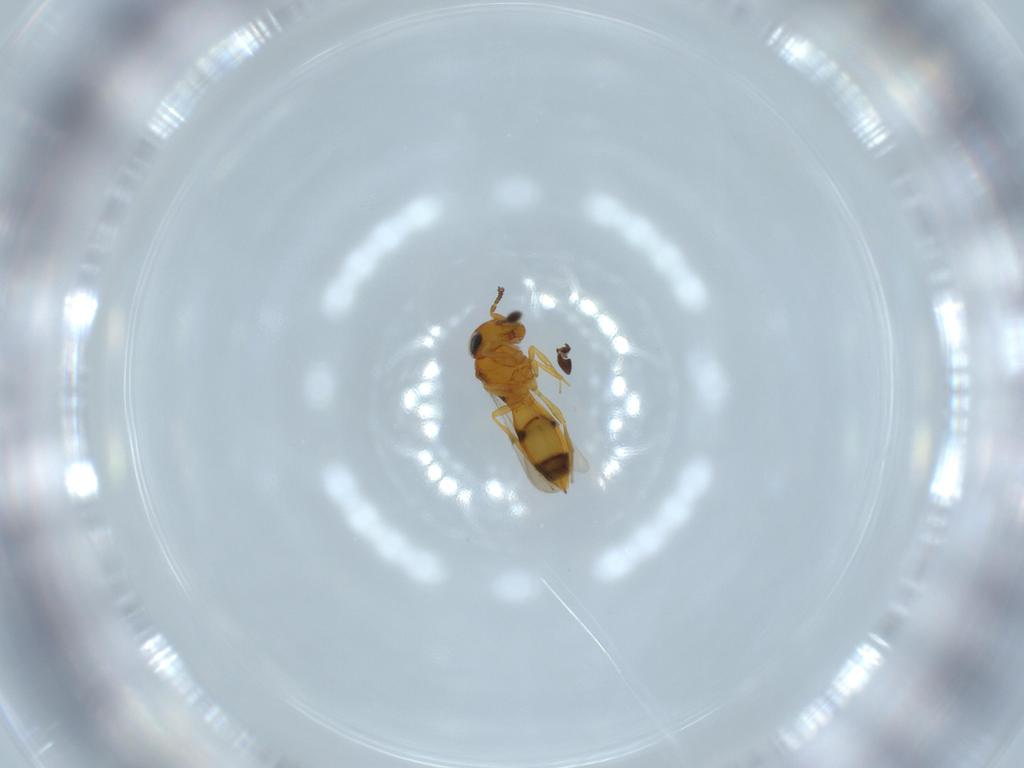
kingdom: Animalia
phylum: Arthropoda
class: Insecta
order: Hymenoptera
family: Scelionidae
